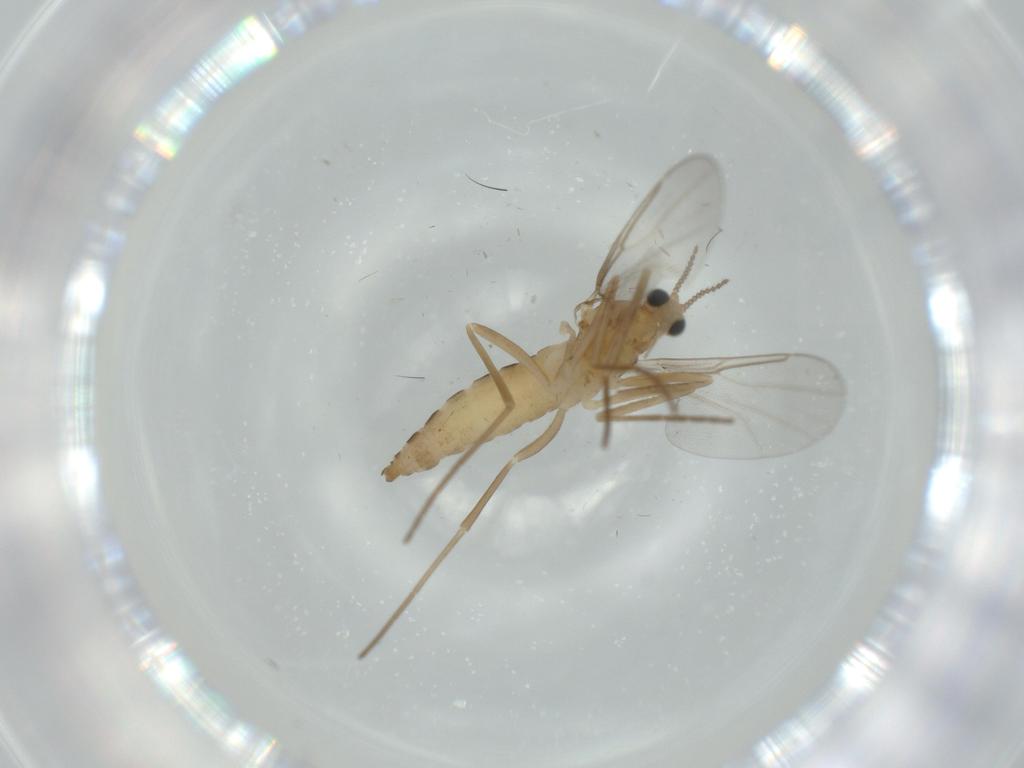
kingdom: Animalia
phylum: Arthropoda
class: Insecta
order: Diptera
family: Cecidomyiidae
